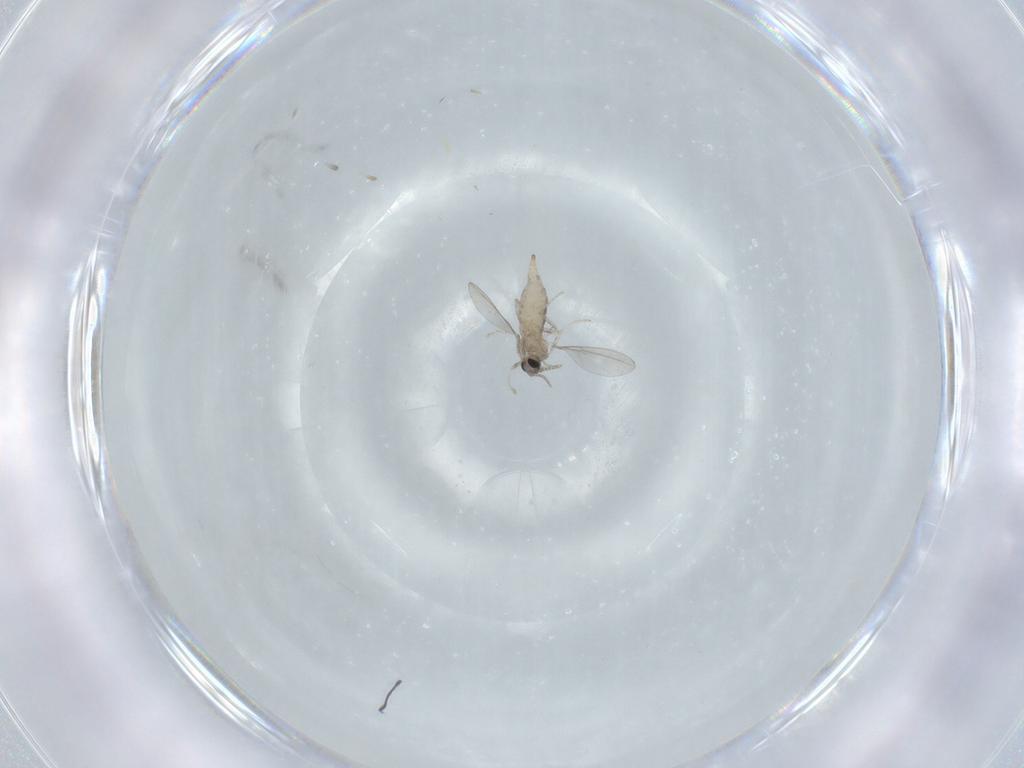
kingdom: Animalia
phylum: Arthropoda
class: Insecta
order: Diptera
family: Cecidomyiidae
